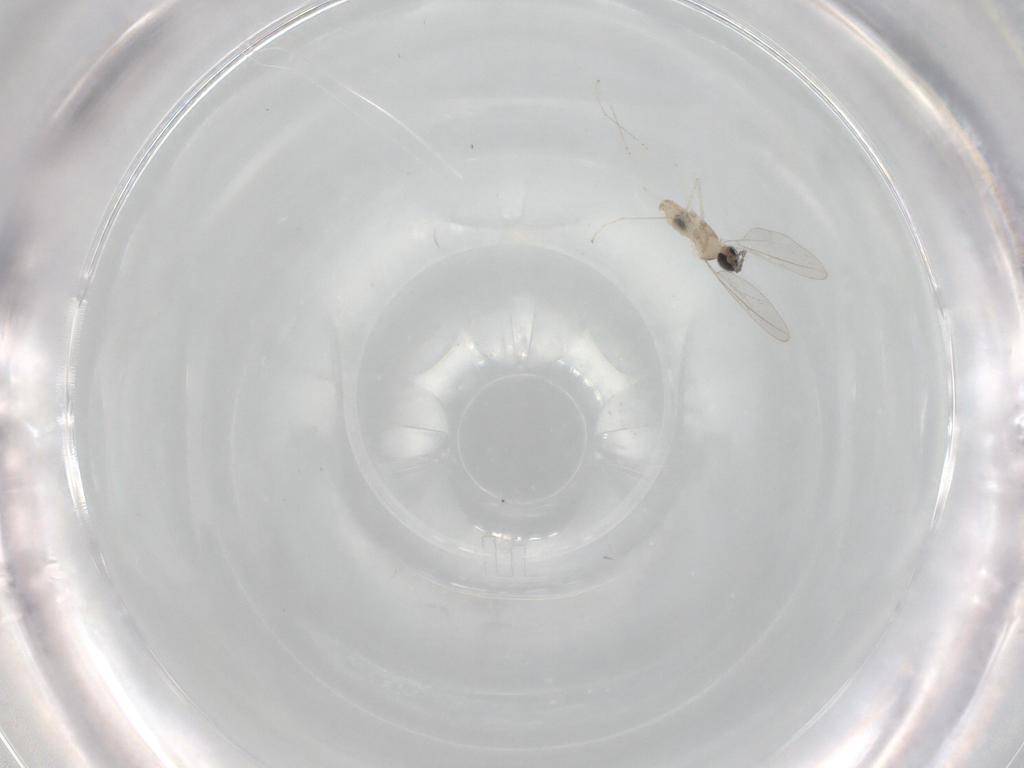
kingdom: Animalia
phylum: Arthropoda
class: Insecta
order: Diptera
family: Cecidomyiidae
